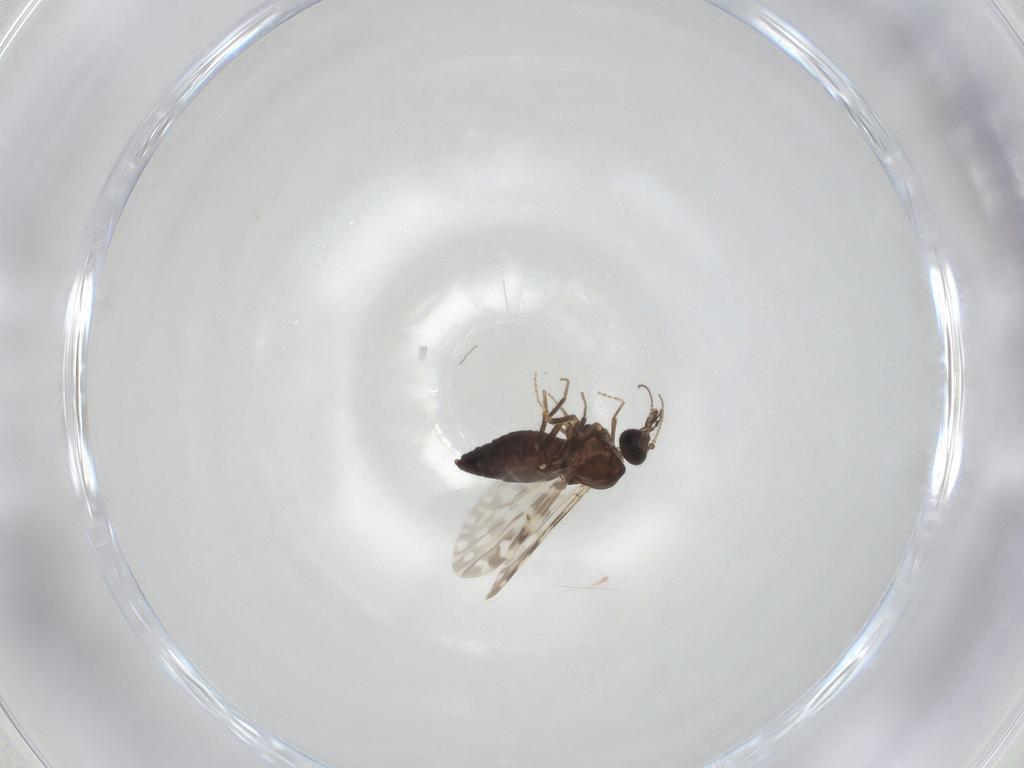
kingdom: Animalia
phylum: Arthropoda
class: Insecta
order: Diptera
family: Ceratopogonidae
